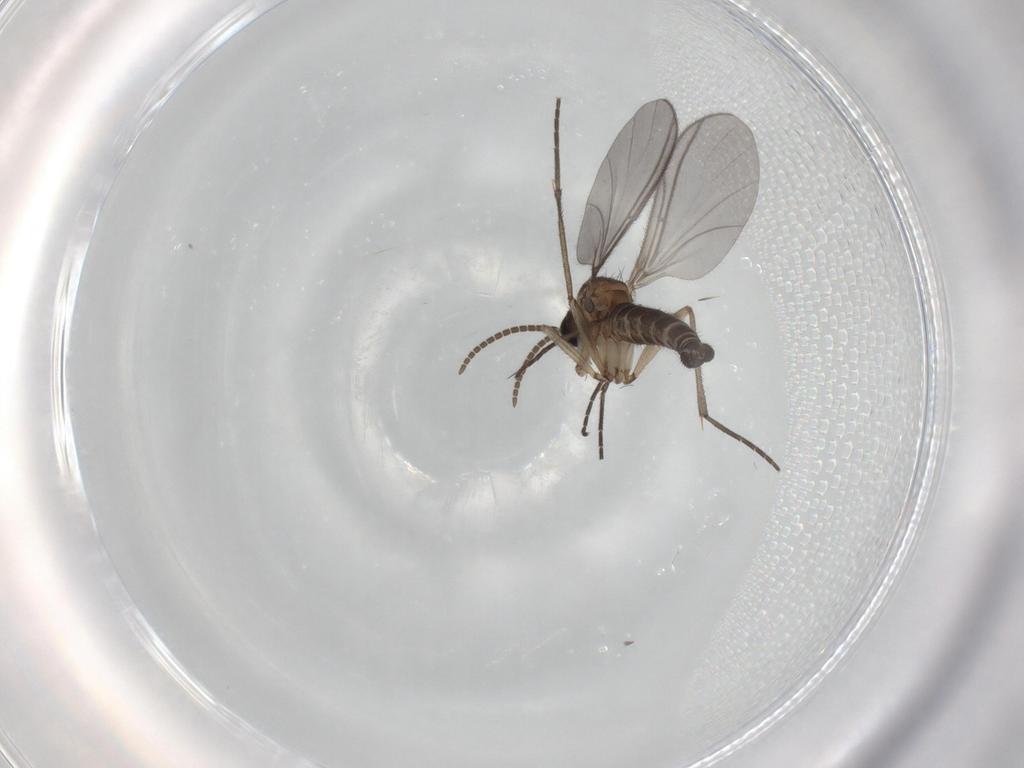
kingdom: Animalia
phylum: Arthropoda
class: Insecta
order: Diptera
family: Sciaridae
